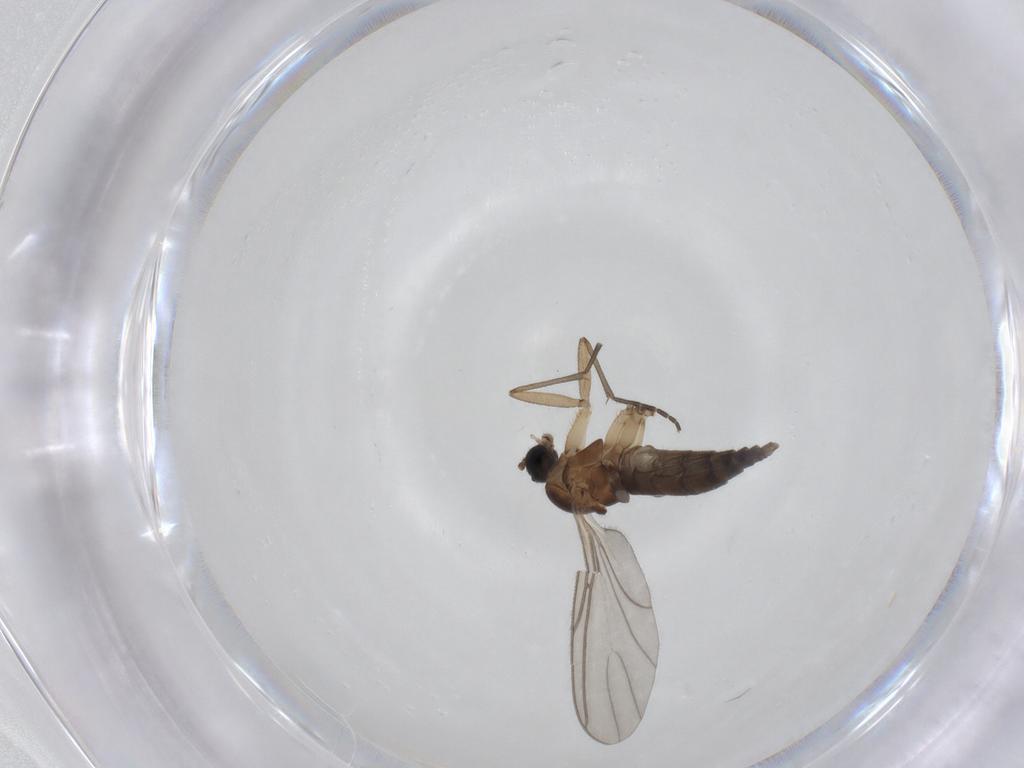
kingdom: Animalia
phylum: Arthropoda
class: Insecta
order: Diptera
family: Sciaridae
